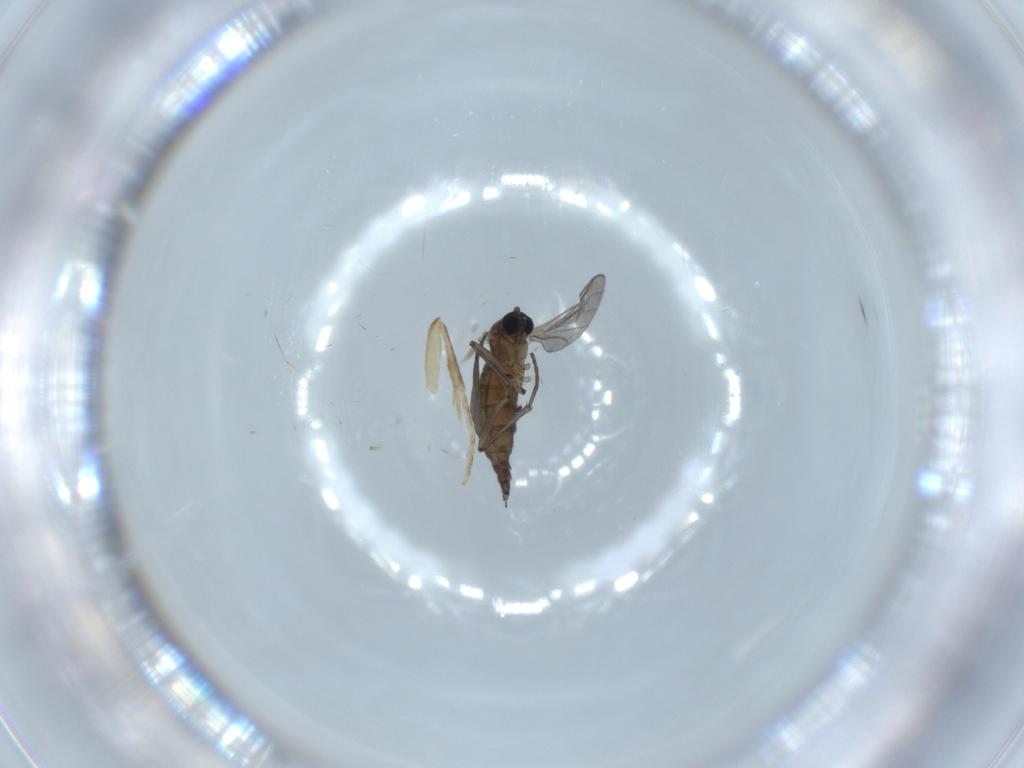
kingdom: Animalia
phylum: Arthropoda
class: Insecta
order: Diptera
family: Sciaridae
